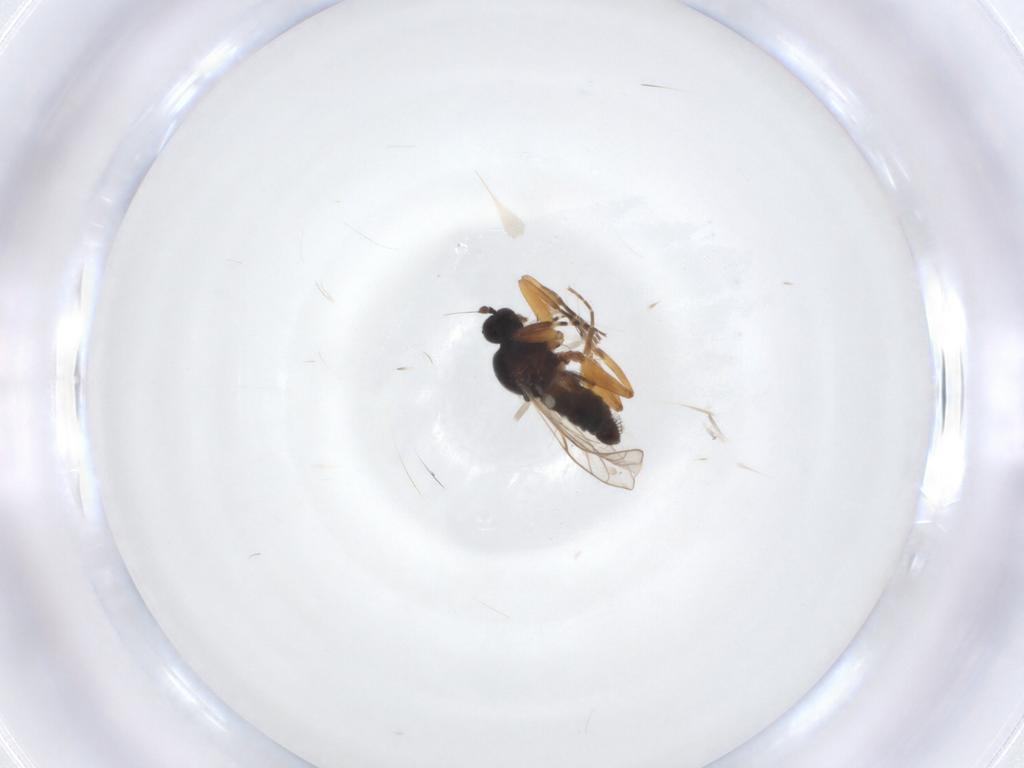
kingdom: Animalia
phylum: Arthropoda
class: Insecta
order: Diptera
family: Hybotidae
